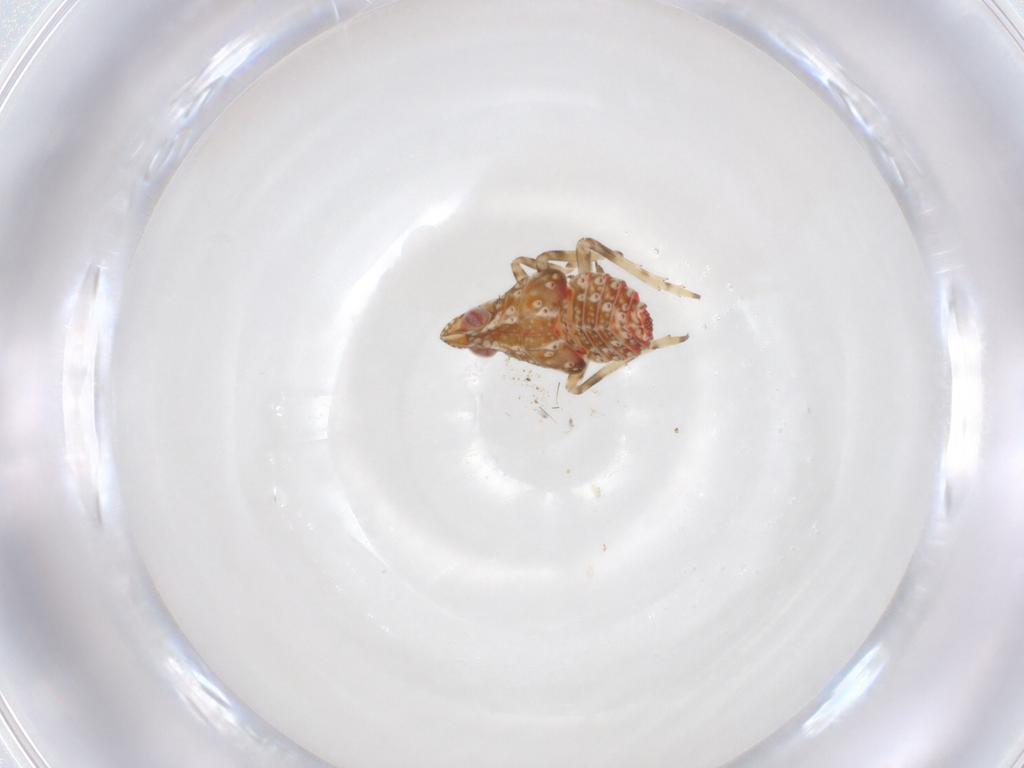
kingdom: Animalia
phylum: Arthropoda
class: Insecta
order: Hemiptera
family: Tropiduchidae
